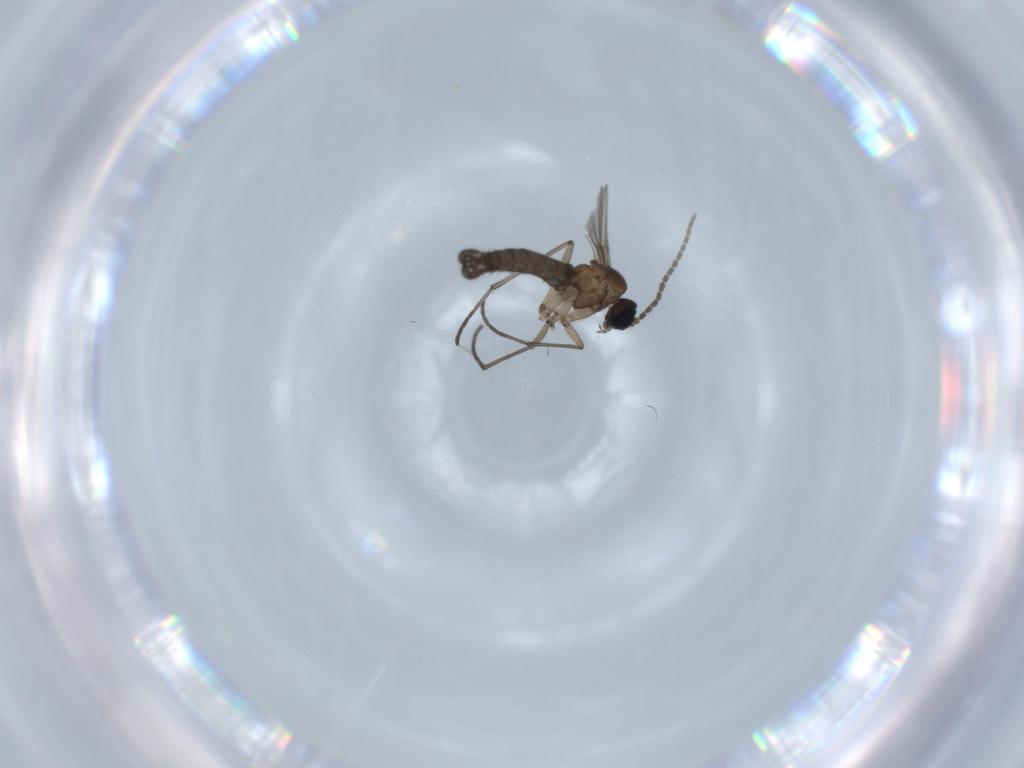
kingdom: Animalia
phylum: Arthropoda
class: Insecta
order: Diptera
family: Sciaridae
